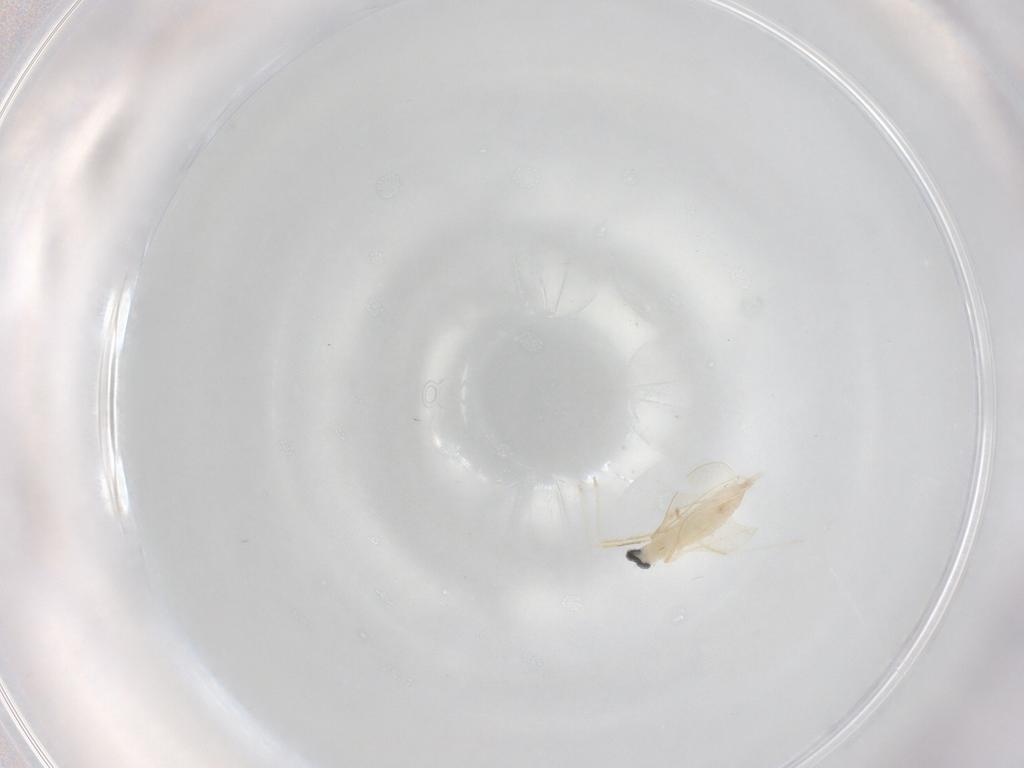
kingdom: Animalia
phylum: Arthropoda
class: Insecta
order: Diptera
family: Cecidomyiidae
